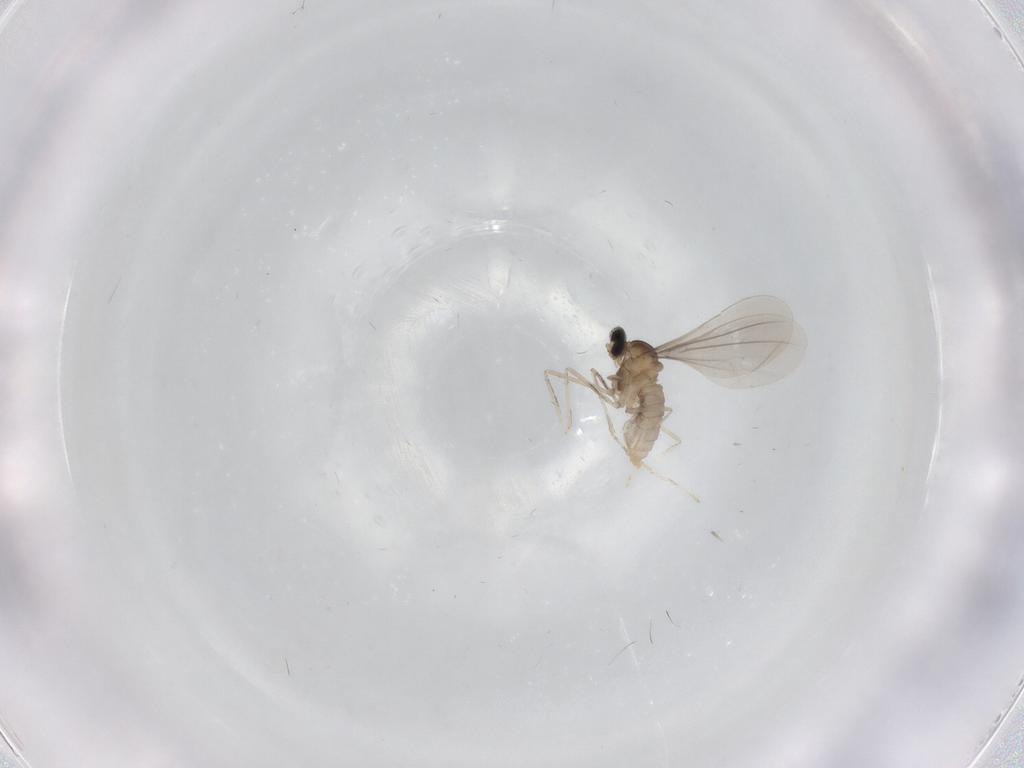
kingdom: Animalia
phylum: Arthropoda
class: Insecta
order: Diptera
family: Cecidomyiidae
